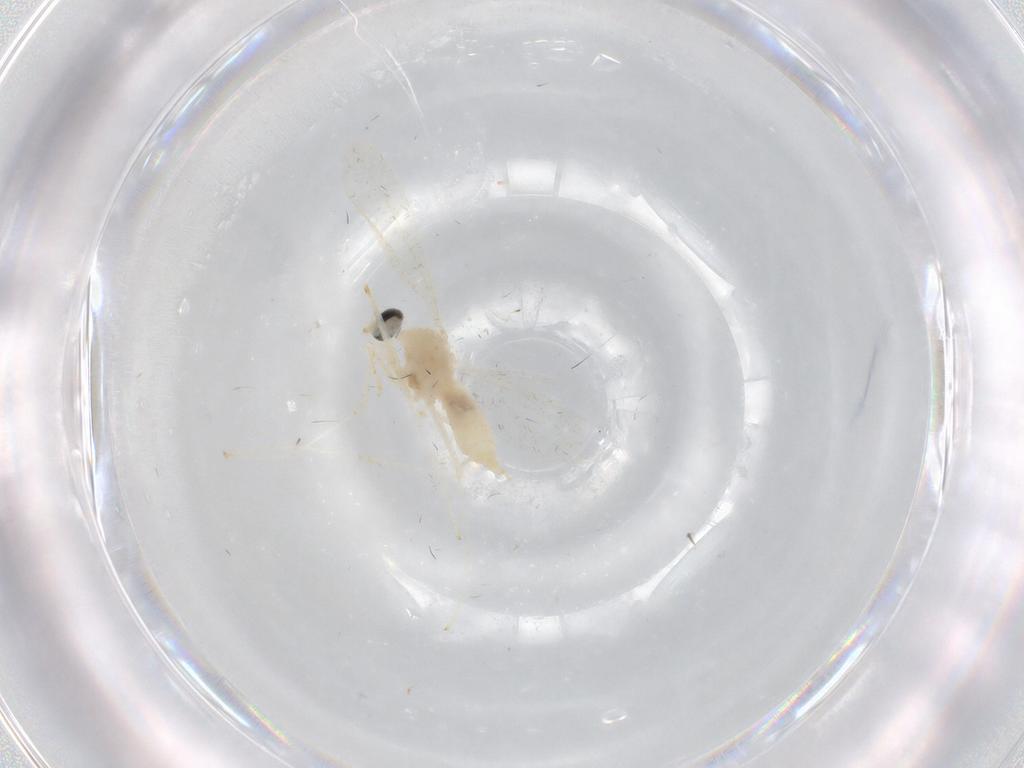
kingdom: Animalia
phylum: Arthropoda
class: Insecta
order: Diptera
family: Cecidomyiidae
